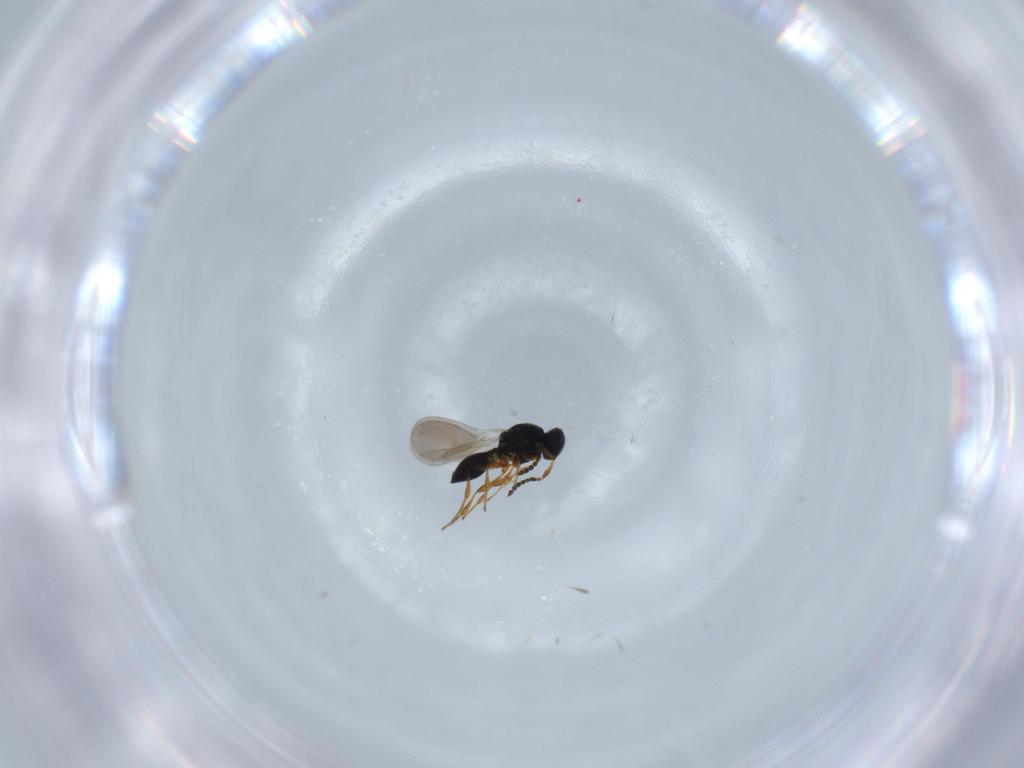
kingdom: Animalia
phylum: Arthropoda
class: Insecta
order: Hymenoptera
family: Platygastridae
